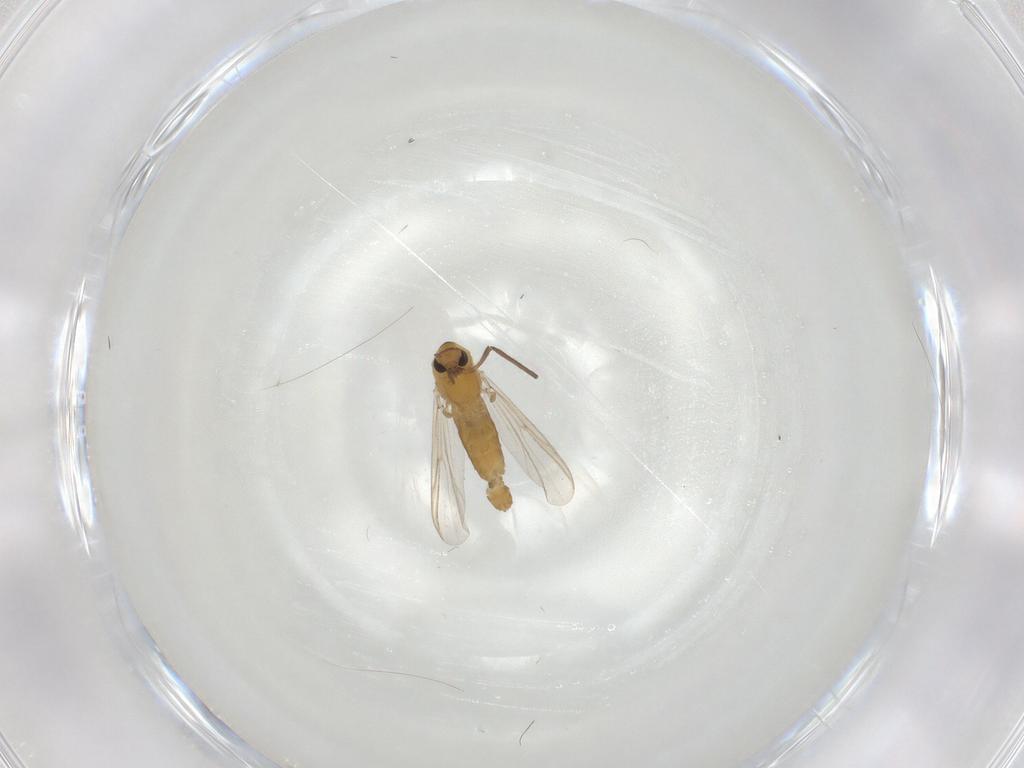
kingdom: Animalia
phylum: Arthropoda
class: Insecta
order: Diptera
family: Chironomidae
